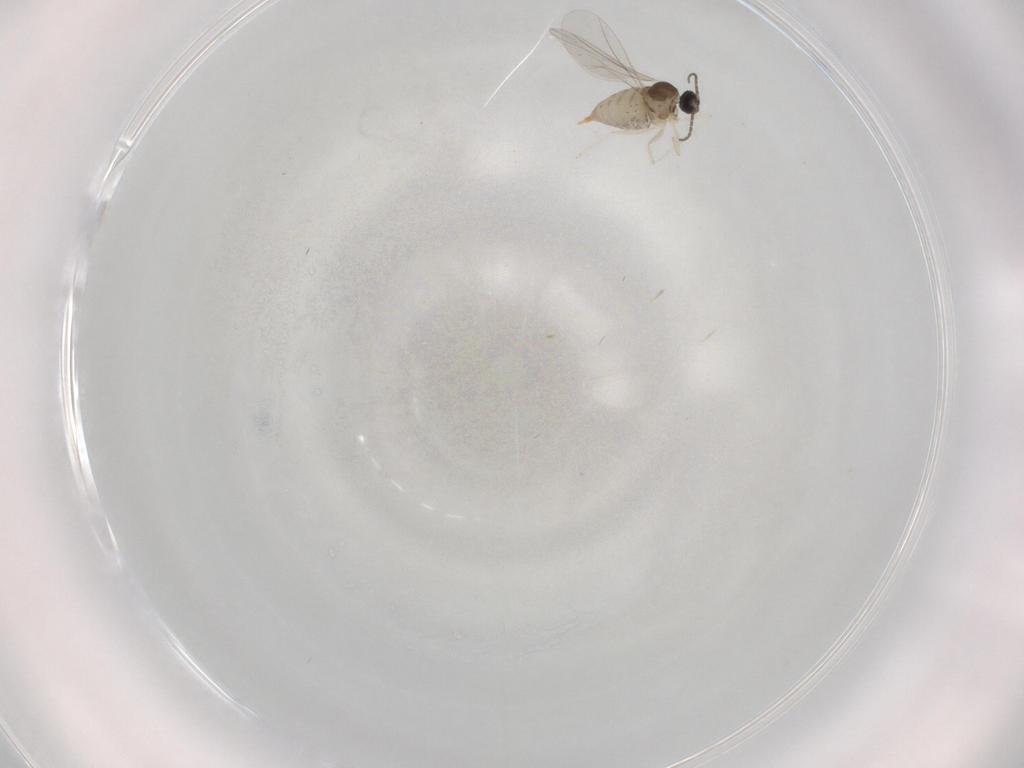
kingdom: Animalia
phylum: Arthropoda
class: Insecta
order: Diptera
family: Cecidomyiidae
